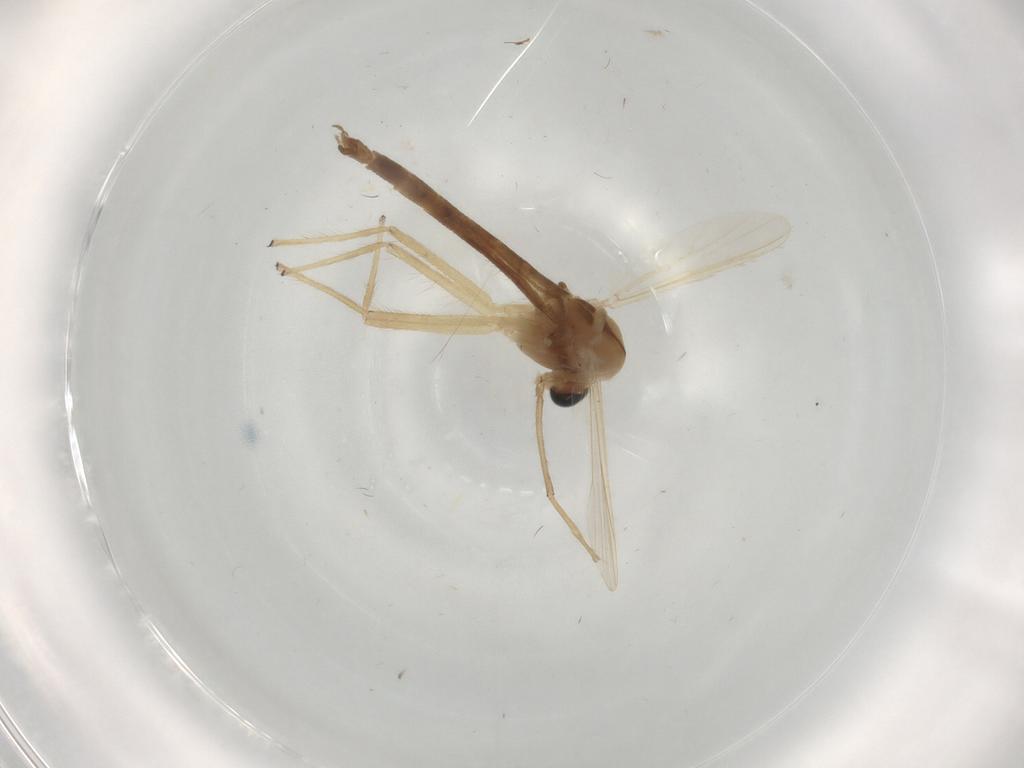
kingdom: Animalia
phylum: Arthropoda
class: Insecta
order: Diptera
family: Chironomidae
